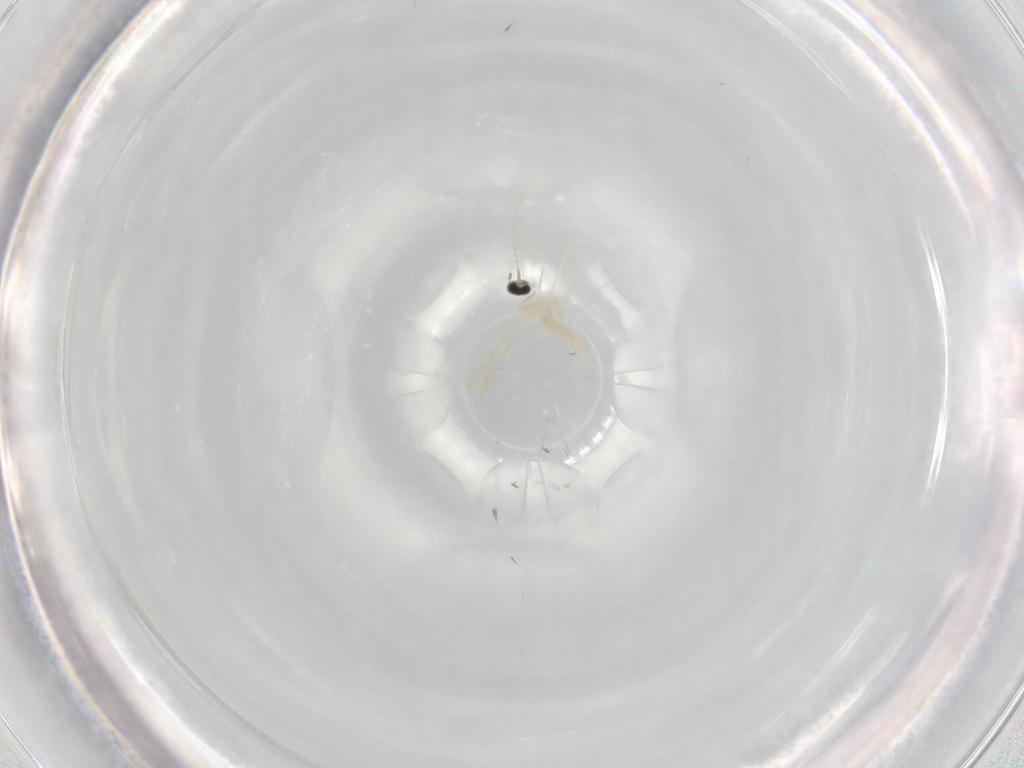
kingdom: Animalia
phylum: Arthropoda
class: Insecta
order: Diptera
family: Cecidomyiidae
